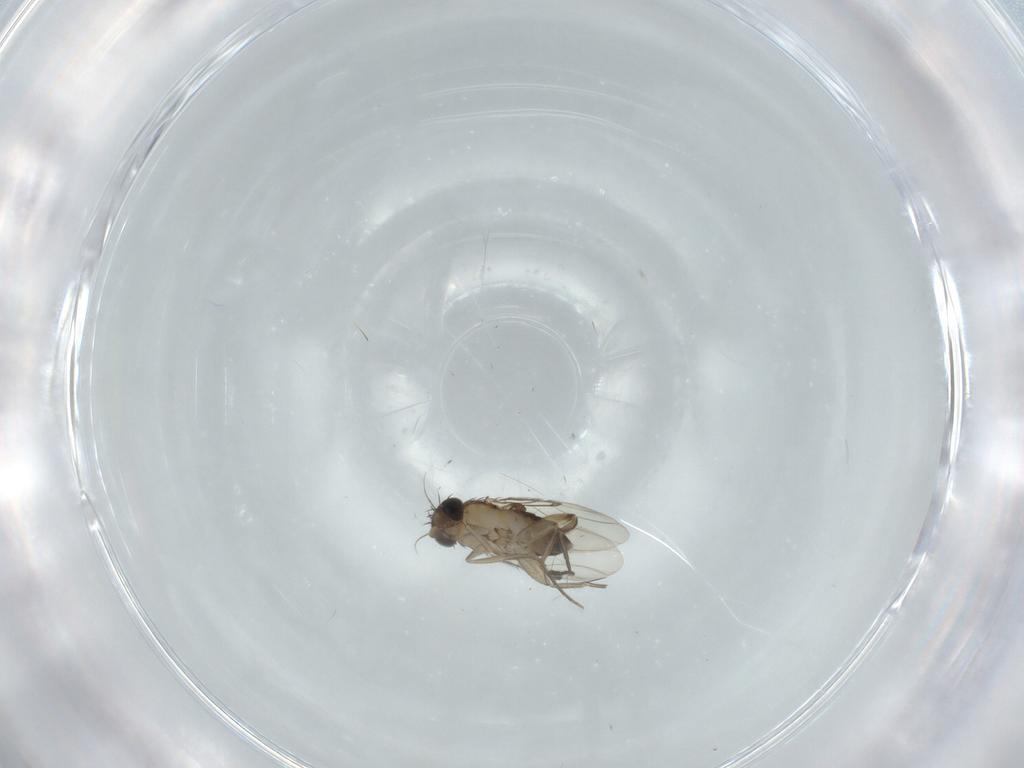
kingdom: Animalia
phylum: Arthropoda
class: Insecta
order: Diptera
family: Phoridae
